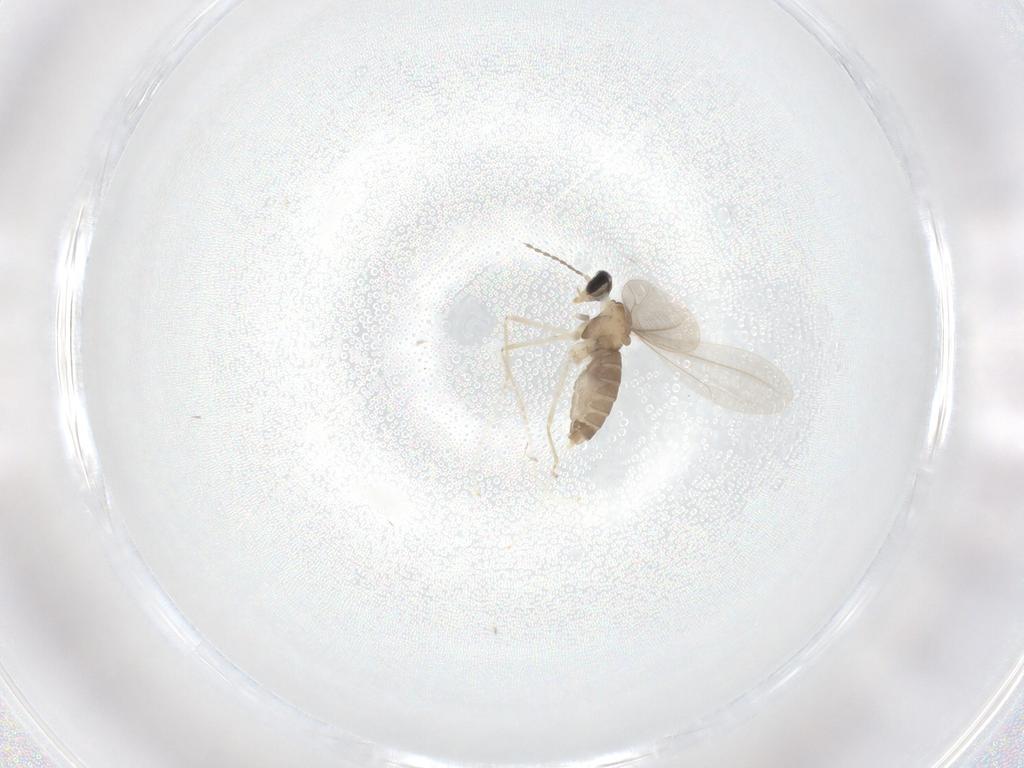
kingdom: Animalia
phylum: Arthropoda
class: Insecta
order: Diptera
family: Cecidomyiidae
